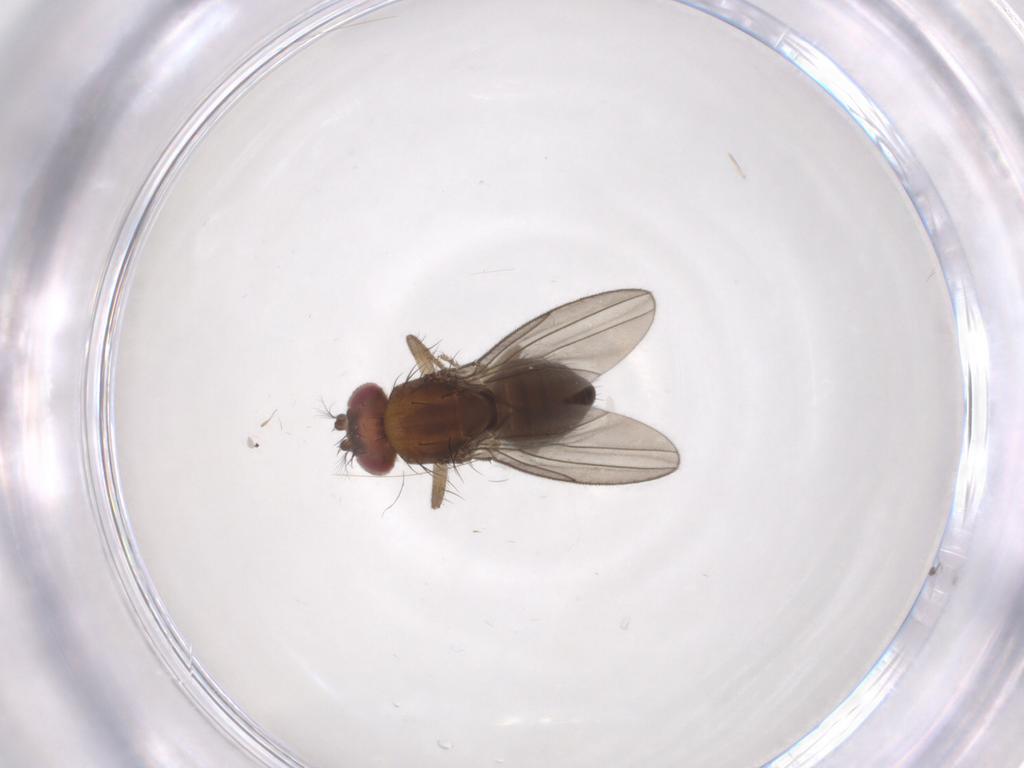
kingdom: Animalia
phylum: Arthropoda
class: Insecta
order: Diptera
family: Drosophilidae
